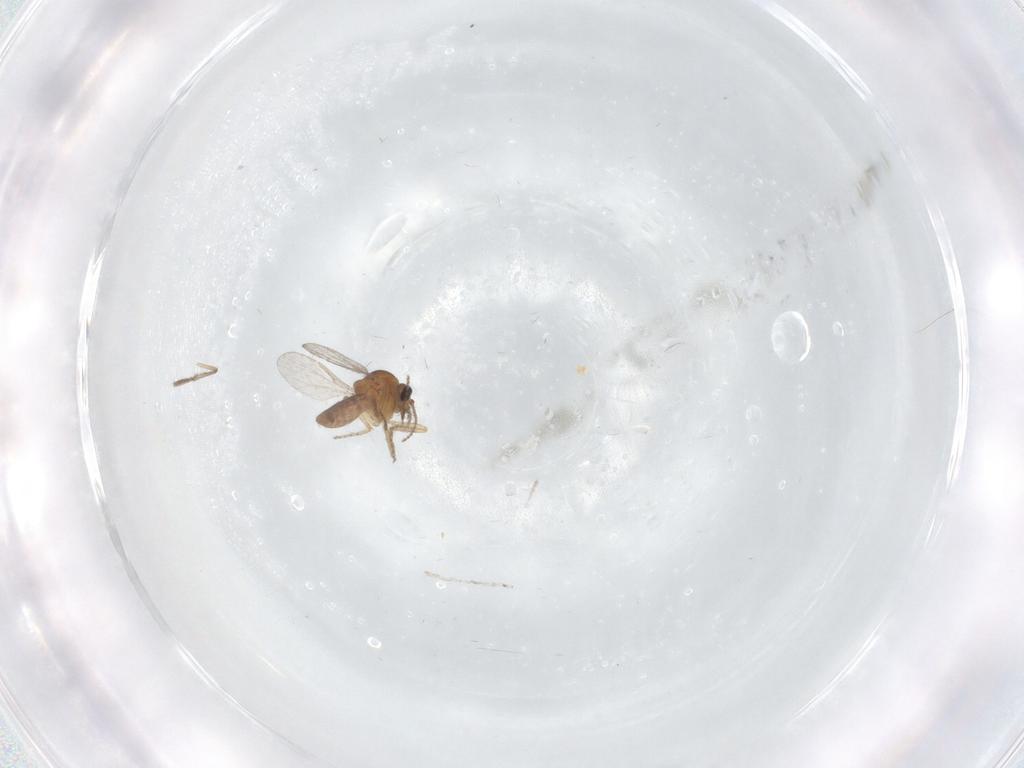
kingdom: Animalia
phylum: Arthropoda
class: Insecta
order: Diptera
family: Ceratopogonidae
